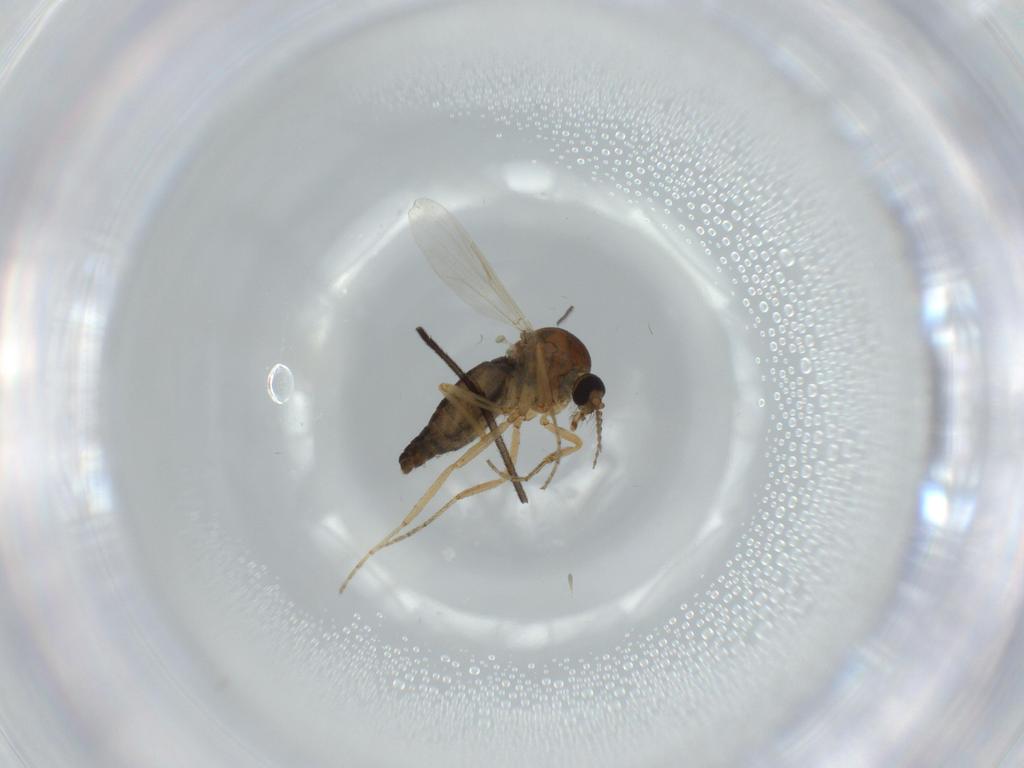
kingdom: Animalia
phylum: Arthropoda
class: Insecta
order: Diptera
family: Ceratopogonidae
